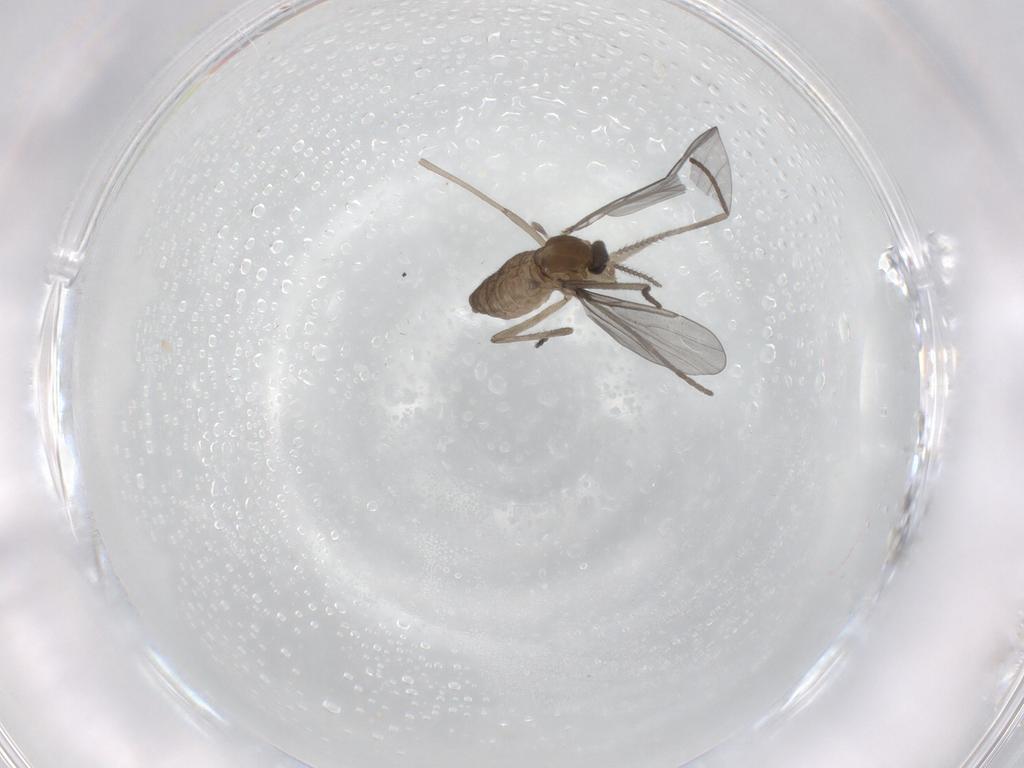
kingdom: Animalia
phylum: Arthropoda
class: Insecta
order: Diptera
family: Cecidomyiidae
